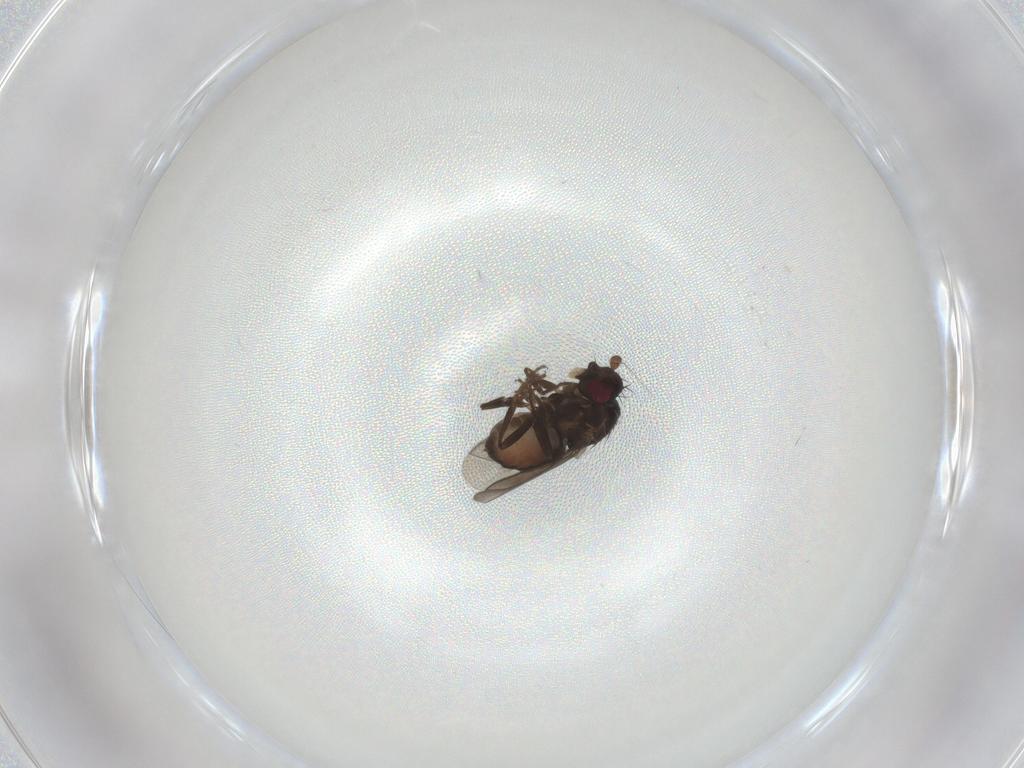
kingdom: Animalia
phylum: Arthropoda
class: Insecta
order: Diptera
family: Sphaeroceridae
